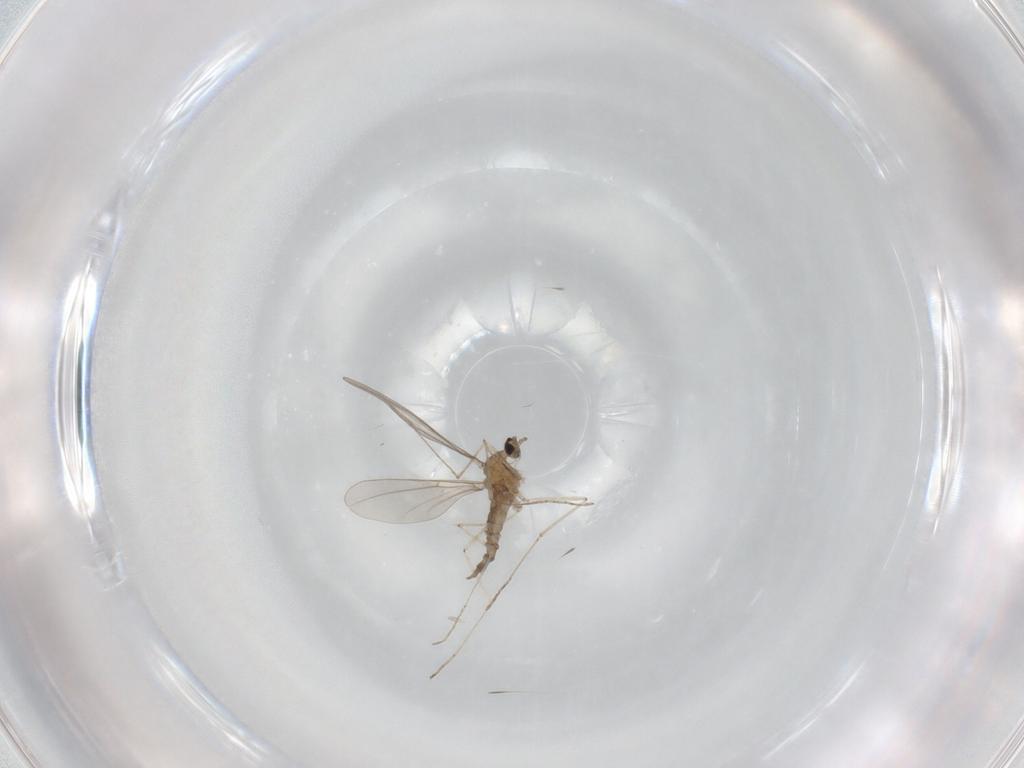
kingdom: Animalia
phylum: Arthropoda
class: Insecta
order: Diptera
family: Cecidomyiidae
